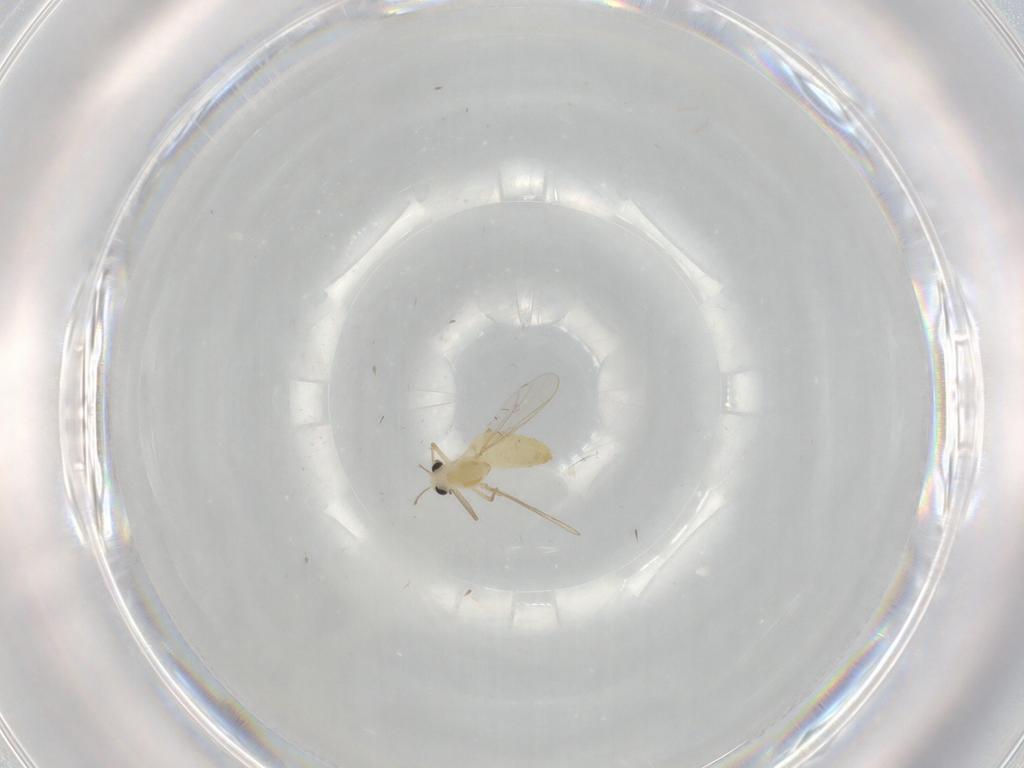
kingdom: Animalia
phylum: Arthropoda
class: Insecta
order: Diptera
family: Chironomidae
